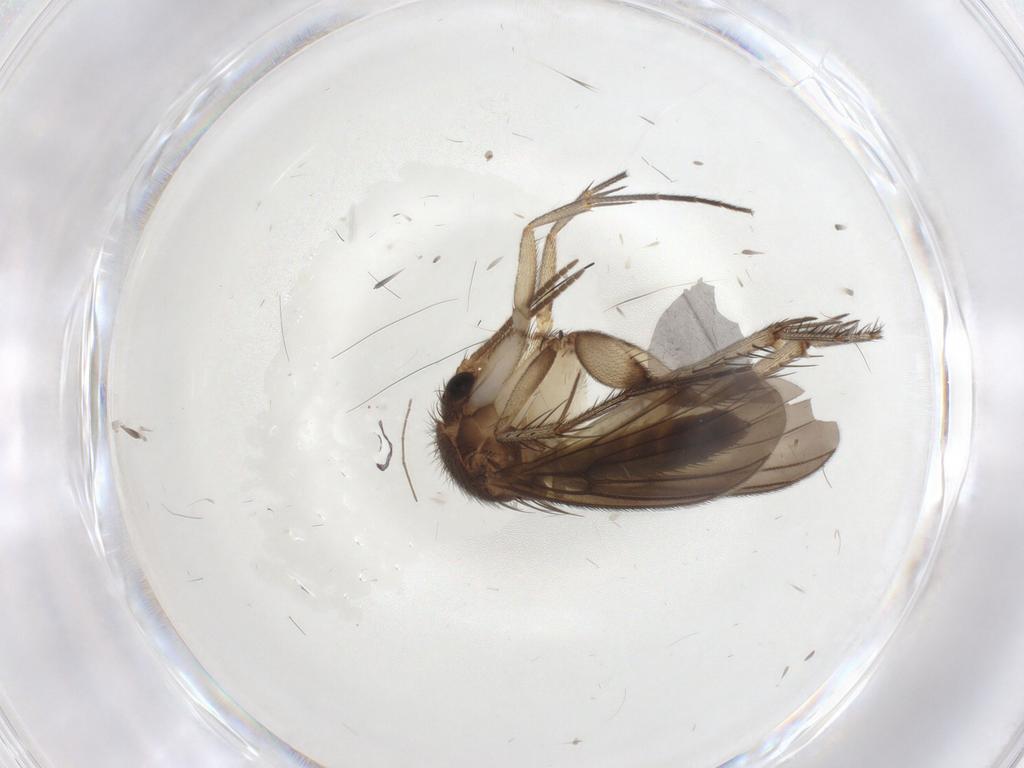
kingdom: Animalia
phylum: Arthropoda
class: Insecta
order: Diptera
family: Mycetophilidae
